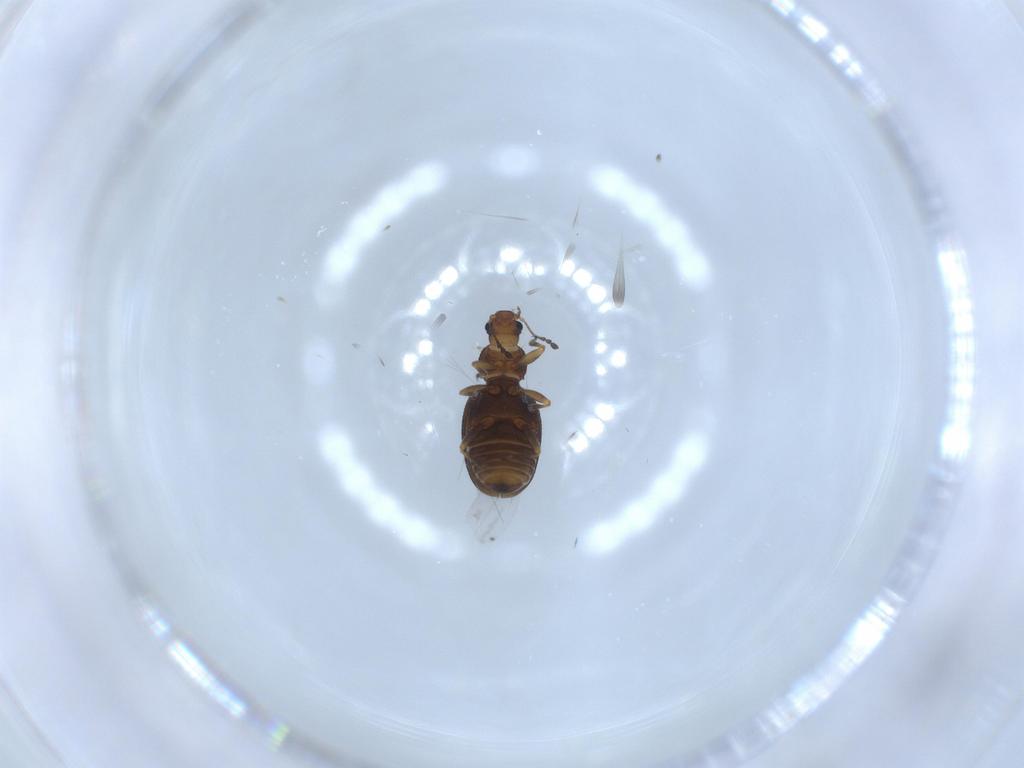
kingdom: Animalia
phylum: Arthropoda
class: Insecta
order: Coleoptera
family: Latridiidae
